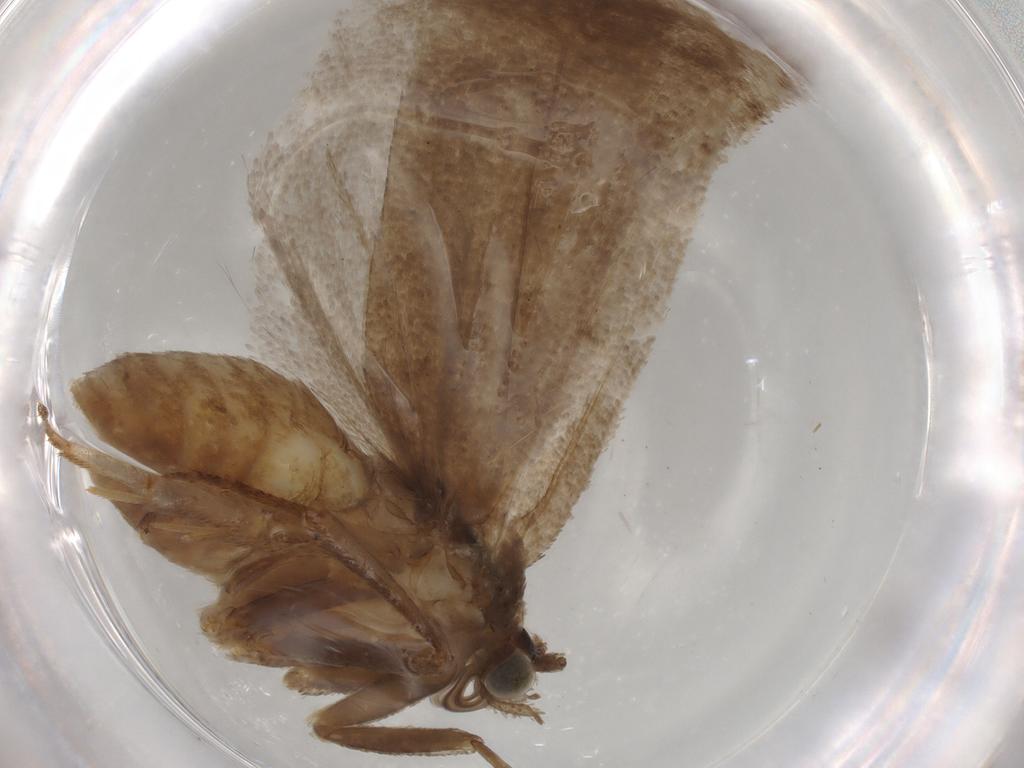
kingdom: Animalia
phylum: Arthropoda
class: Insecta
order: Lepidoptera
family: Tortricidae
